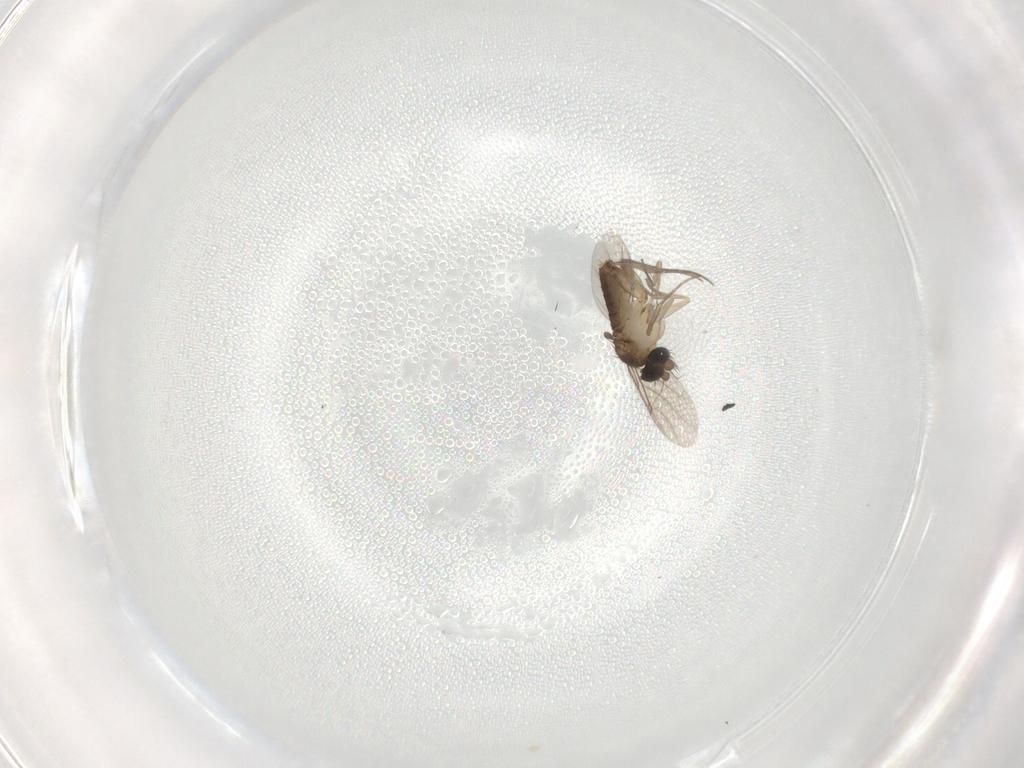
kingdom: Animalia
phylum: Arthropoda
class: Insecta
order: Diptera
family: Phoridae
